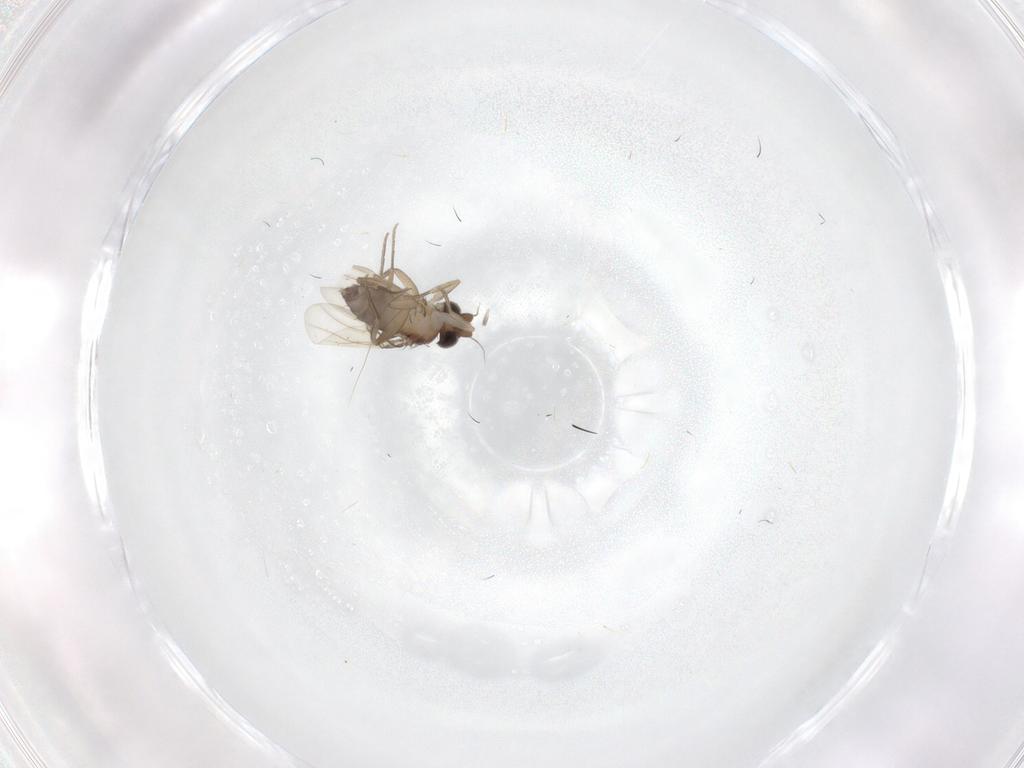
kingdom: Animalia
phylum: Arthropoda
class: Insecta
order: Diptera
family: Phoridae
